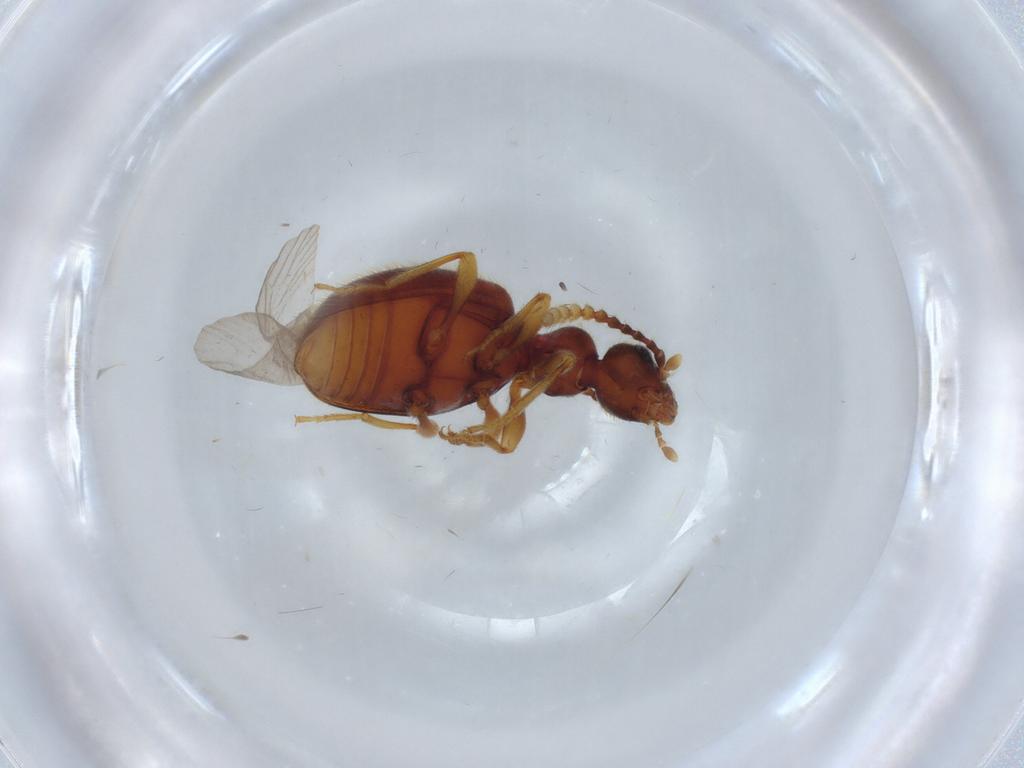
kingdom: Animalia
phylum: Arthropoda
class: Insecta
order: Coleoptera
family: Anthicidae
